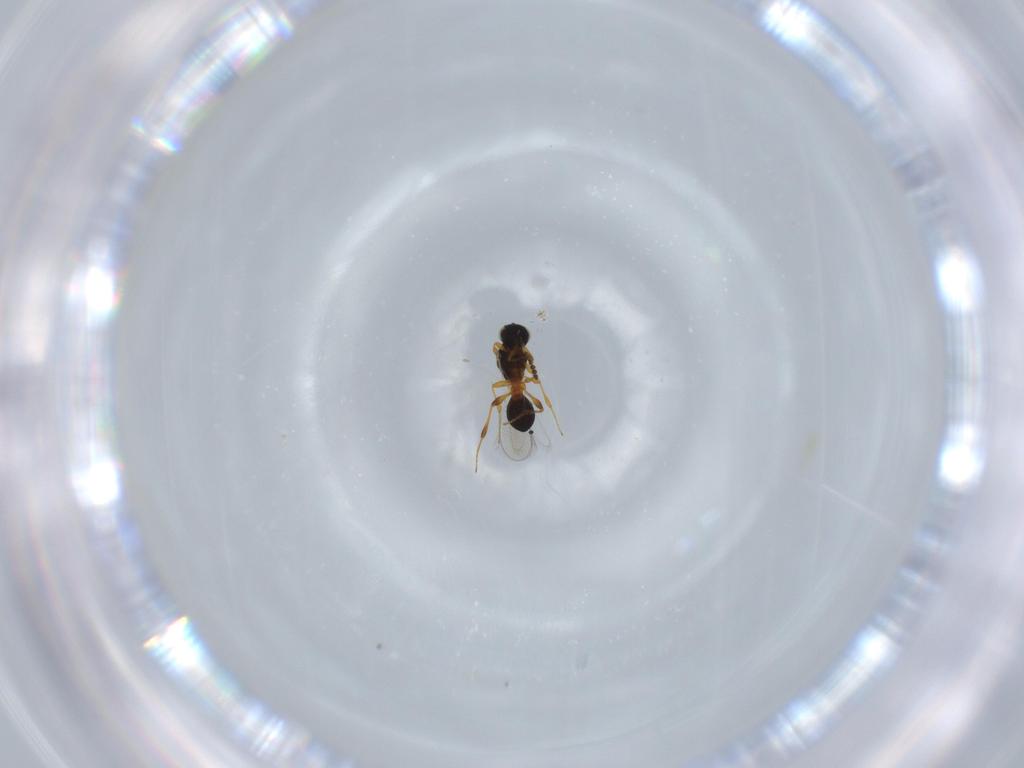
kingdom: Animalia
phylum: Arthropoda
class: Insecta
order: Hymenoptera
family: Platygastridae
